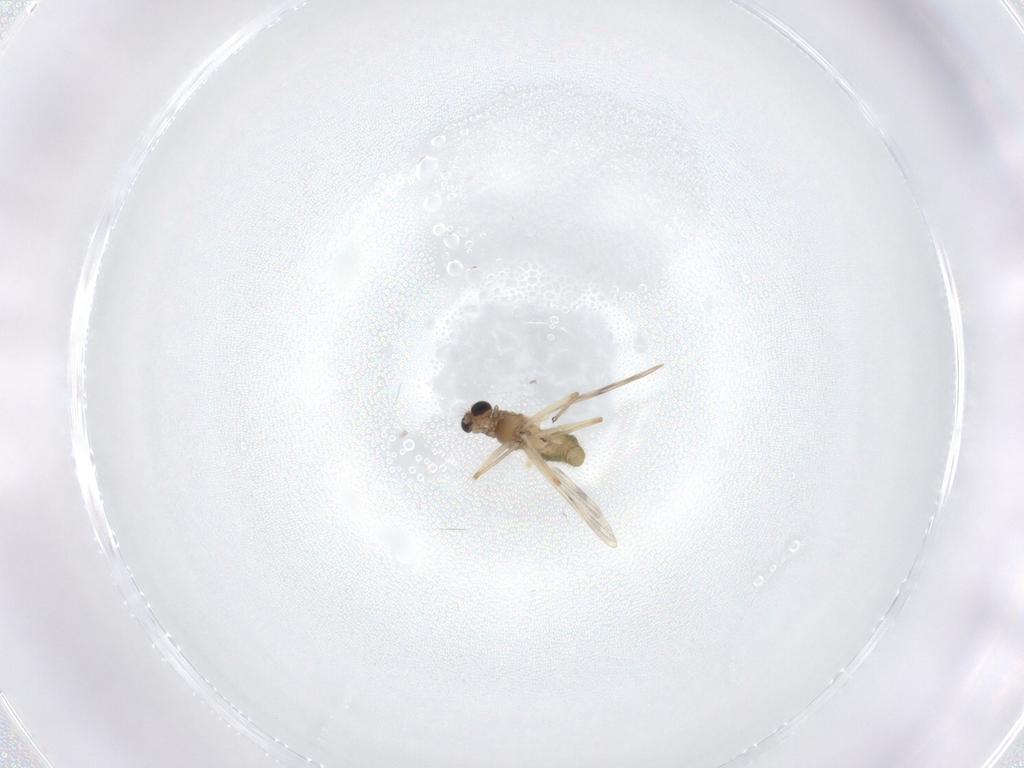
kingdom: Animalia
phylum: Arthropoda
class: Insecta
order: Diptera
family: Chironomidae
